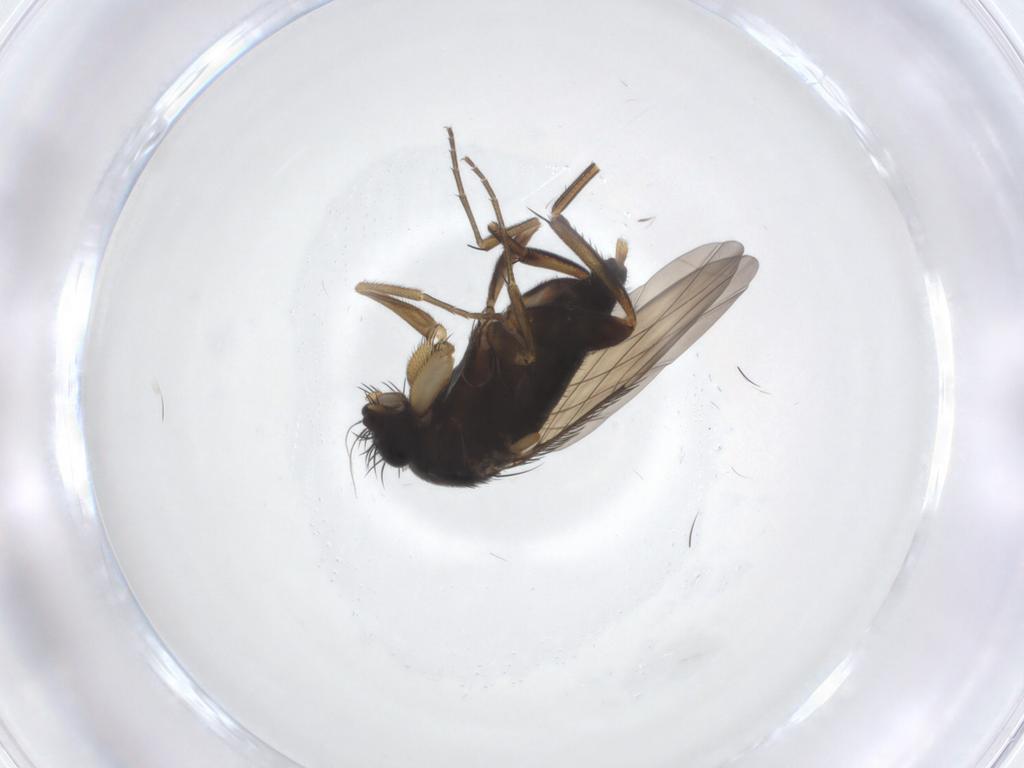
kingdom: Animalia
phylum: Arthropoda
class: Insecta
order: Diptera
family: Phoridae
